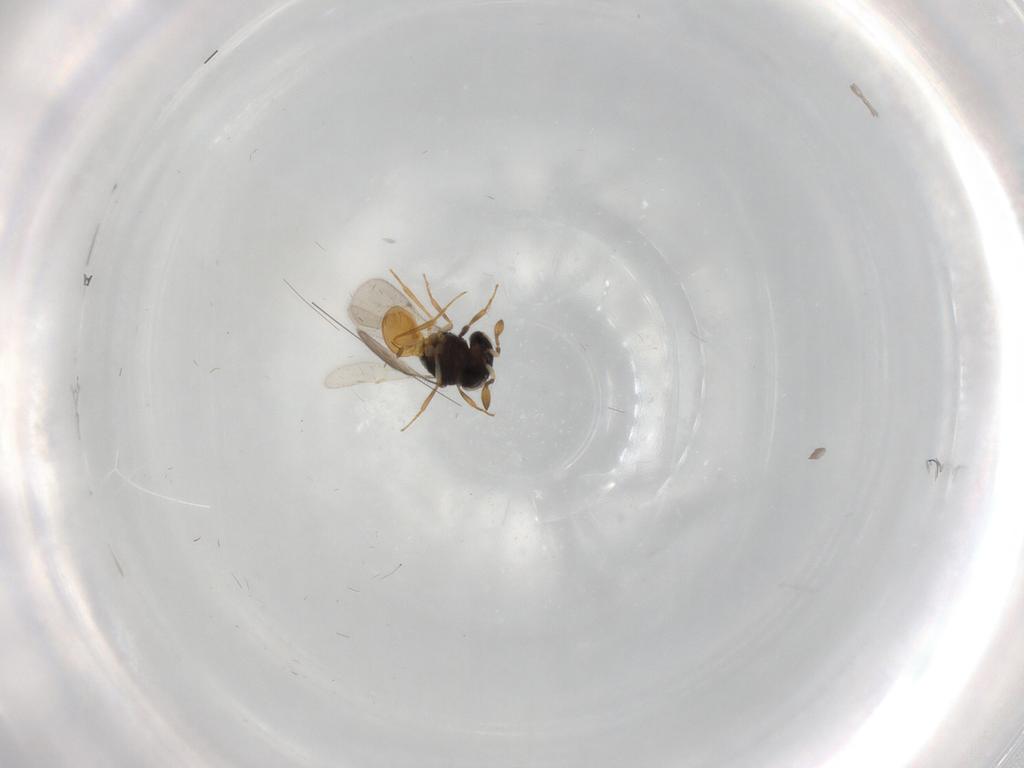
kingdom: Animalia
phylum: Arthropoda
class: Insecta
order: Hymenoptera
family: Scelionidae
